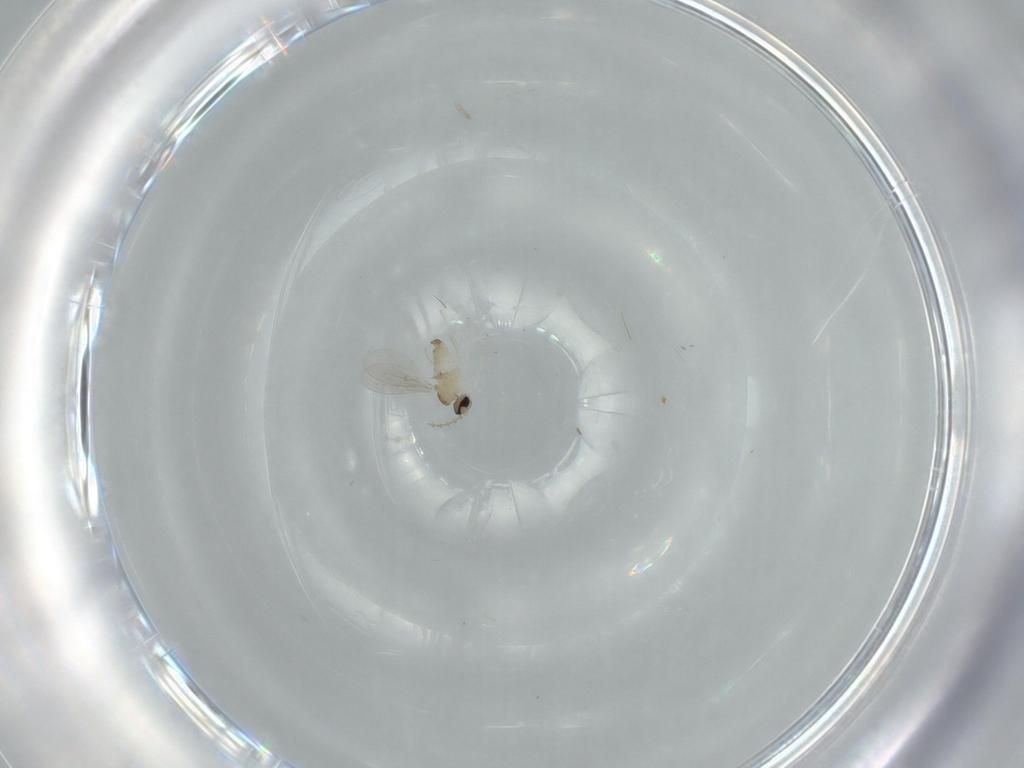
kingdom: Animalia
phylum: Arthropoda
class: Insecta
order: Diptera
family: Cecidomyiidae
